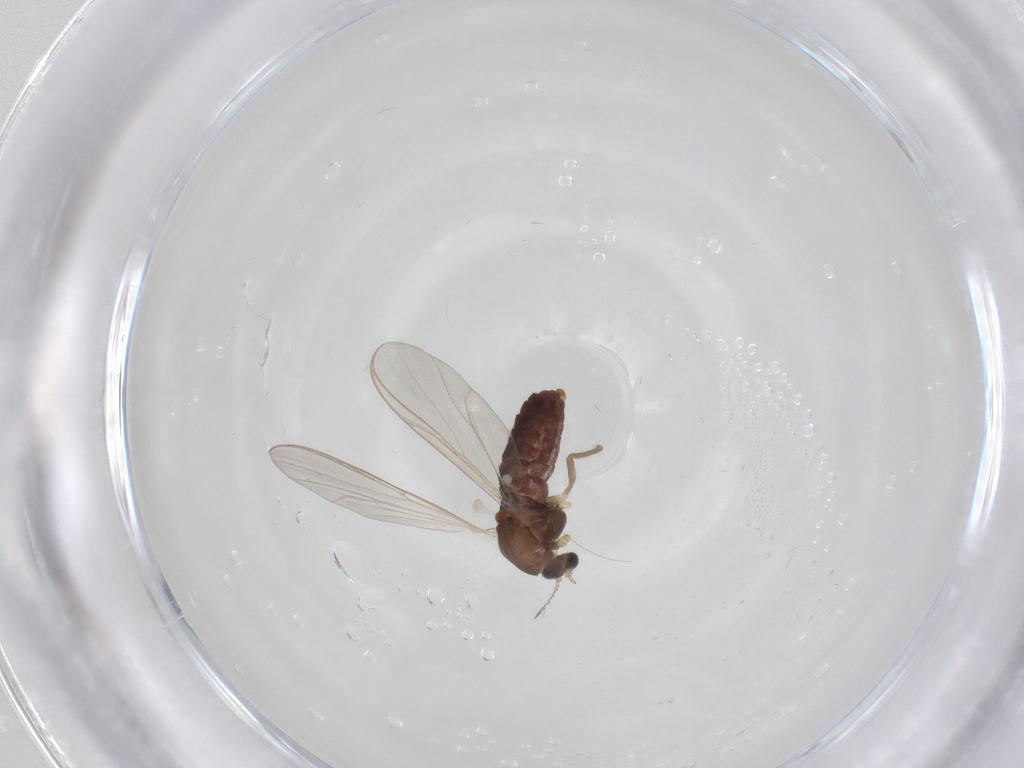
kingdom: Animalia
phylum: Arthropoda
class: Insecta
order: Diptera
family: Chironomidae
